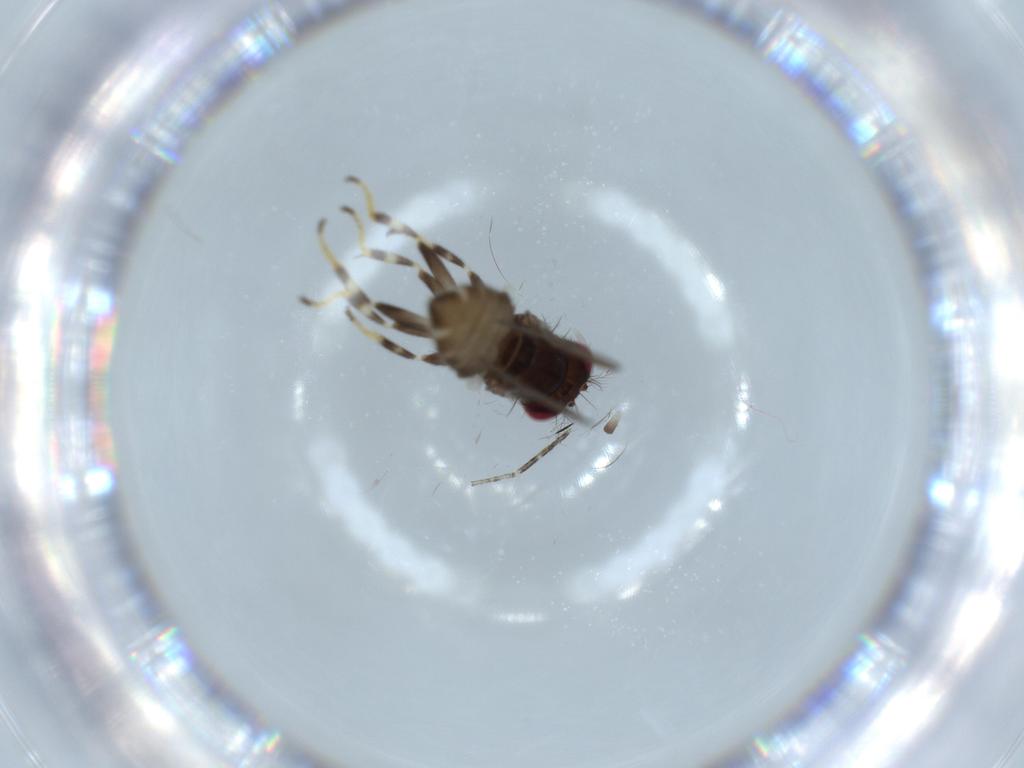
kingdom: Animalia
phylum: Arthropoda
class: Insecta
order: Diptera
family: Ephydridae
